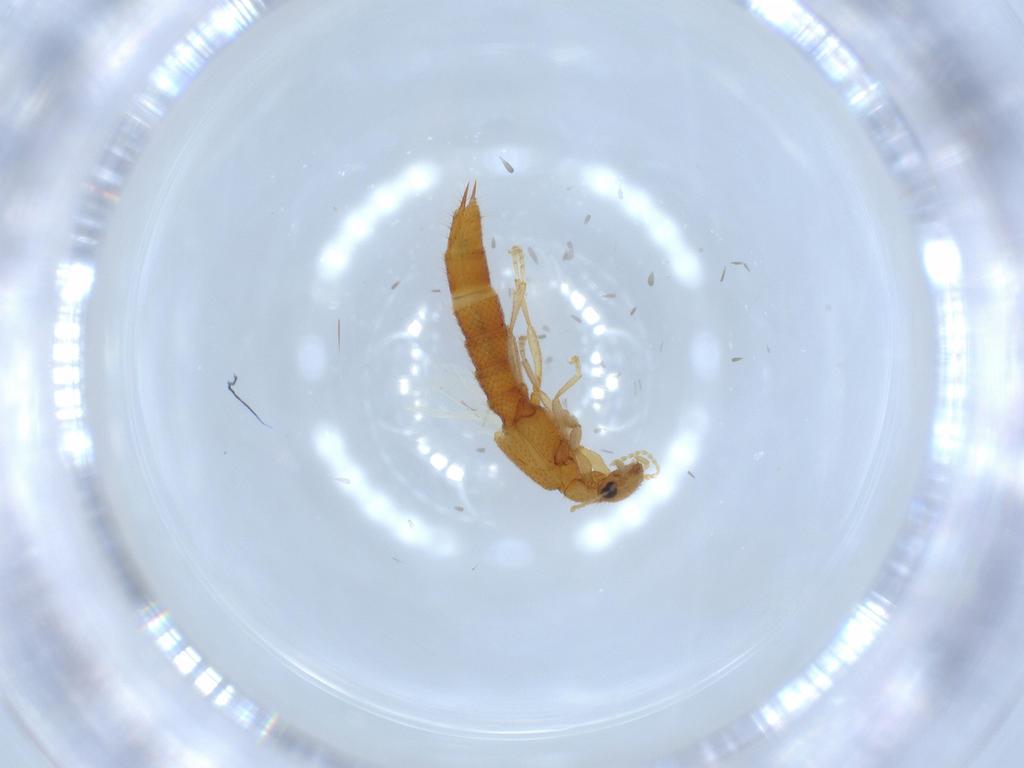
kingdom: Animalia
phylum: Arthropoda
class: Insecta
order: Coleoptera
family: Staphylinidae
